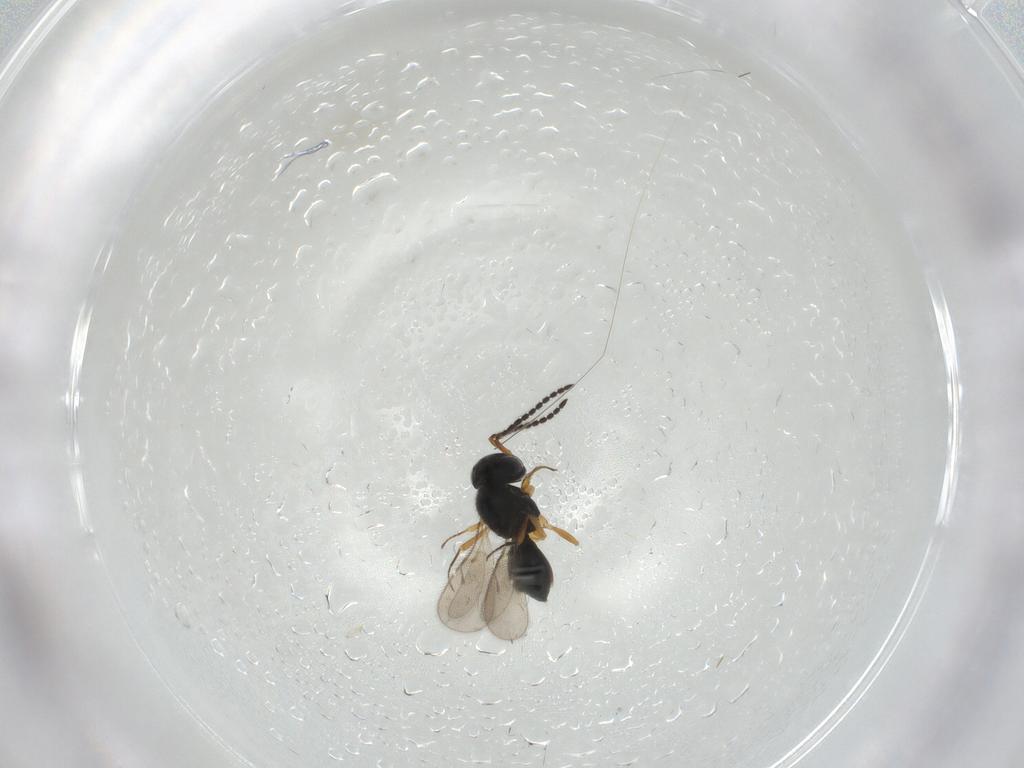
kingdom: Animalia
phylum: Arthropoda
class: Insecta
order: Hymenoptera
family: Scelionidae
